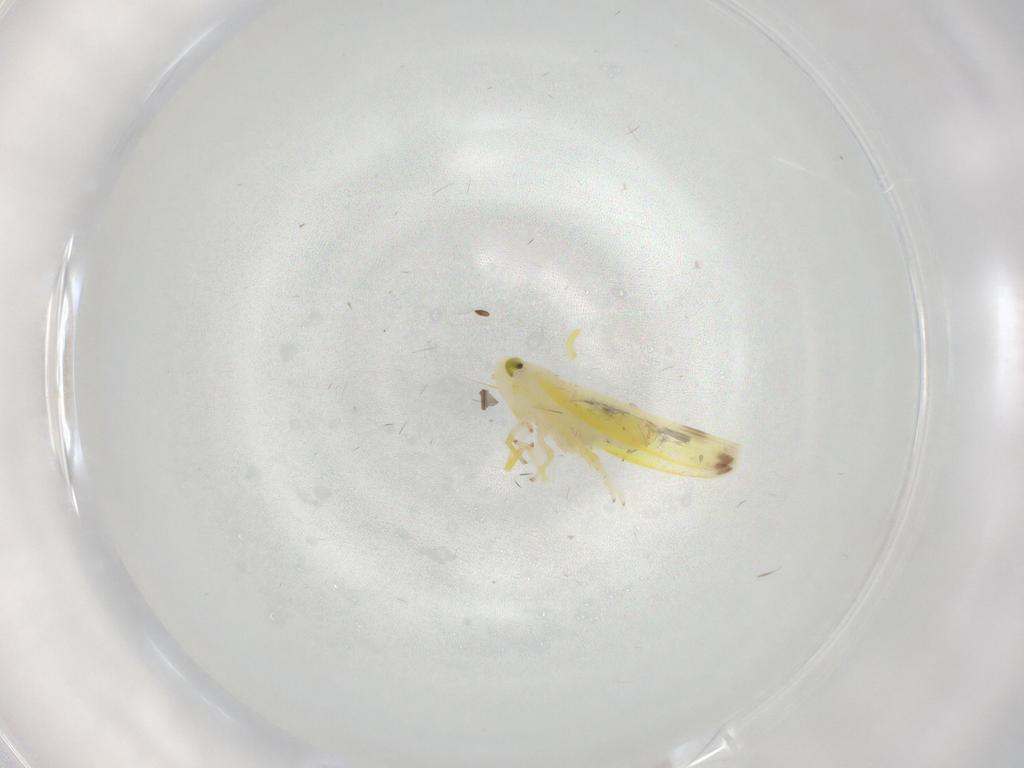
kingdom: Animalia
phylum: Arthropoda
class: Insecta
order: Hemiptera
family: Cicadellidae
